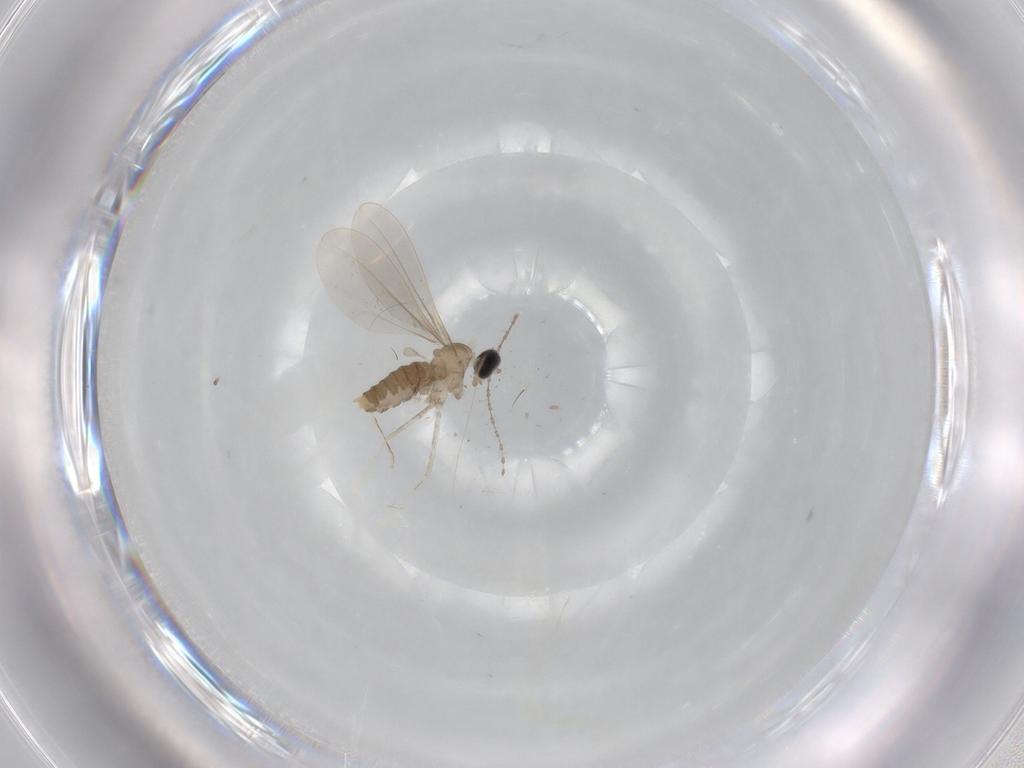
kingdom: Animalia
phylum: Arthropoda
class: Insecta
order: Diptera
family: Cecidomyiidae
